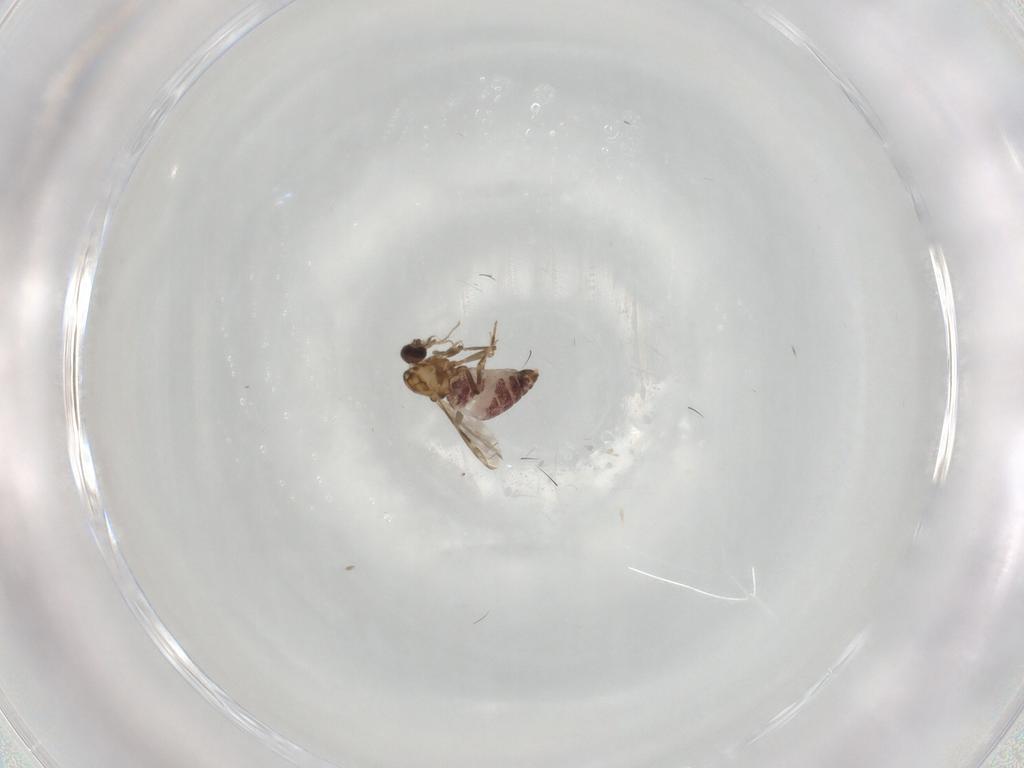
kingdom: Animalia
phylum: Arthropoda
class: Insecta
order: Diptera
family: Ceratopogonidae
